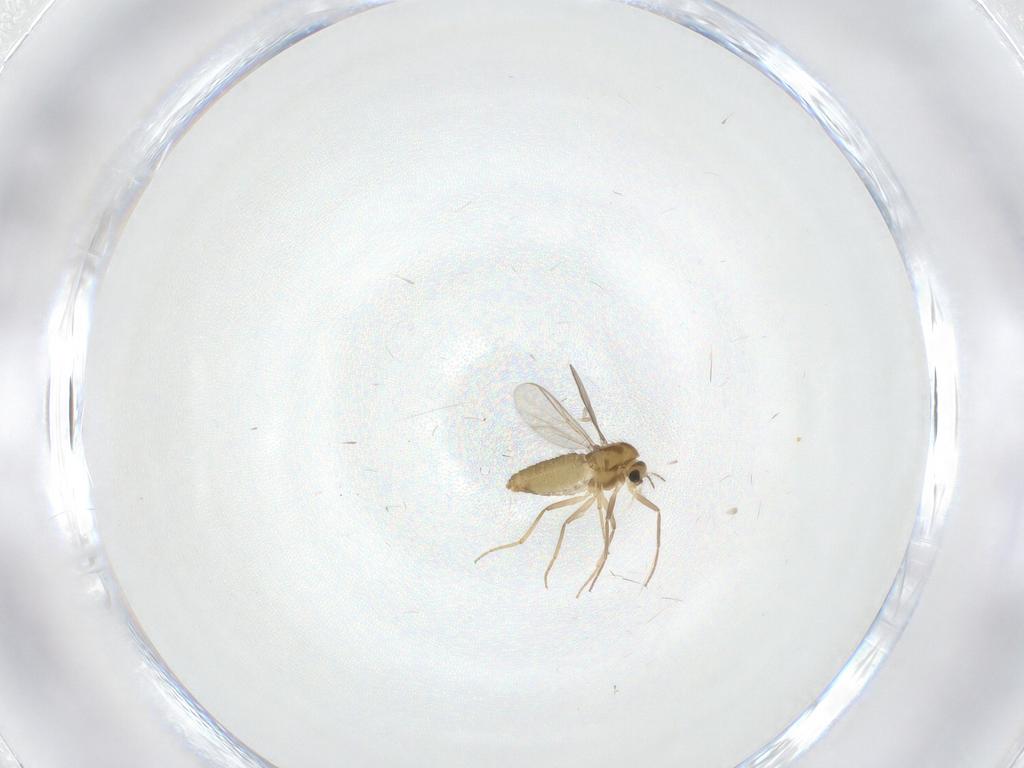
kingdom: Animalia
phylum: Arthropoda
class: Insecta
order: Diptera
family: Chironomidae
